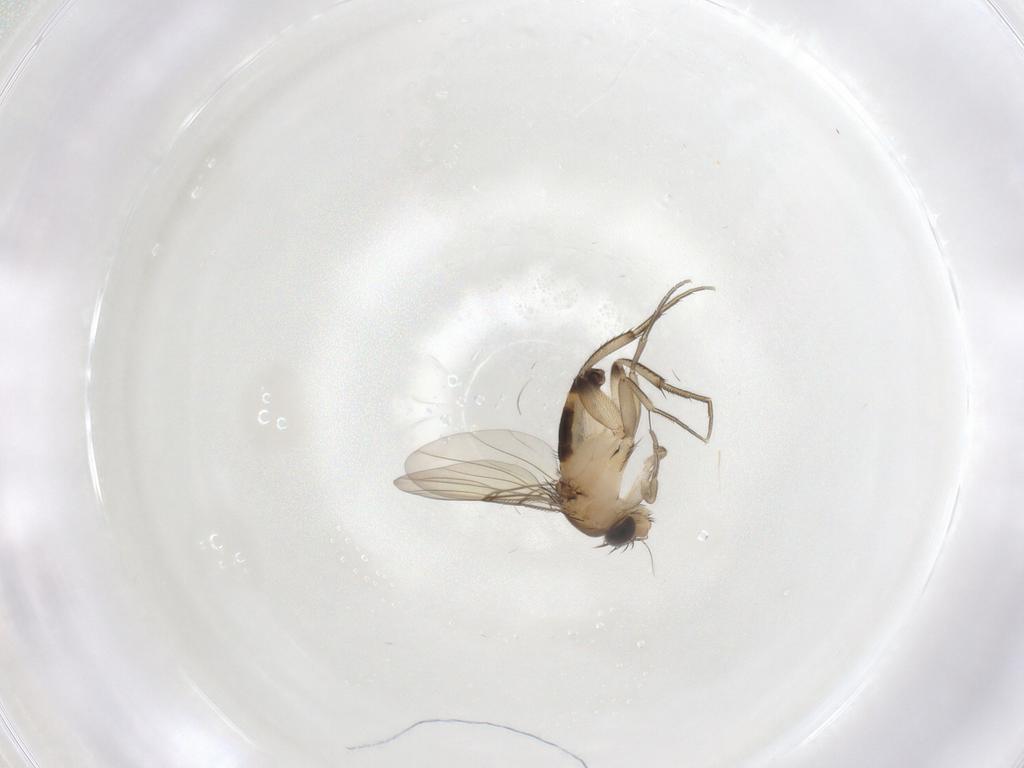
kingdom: Animalia
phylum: Arthropoda
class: Insecta
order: Diptera
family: Phoridae
